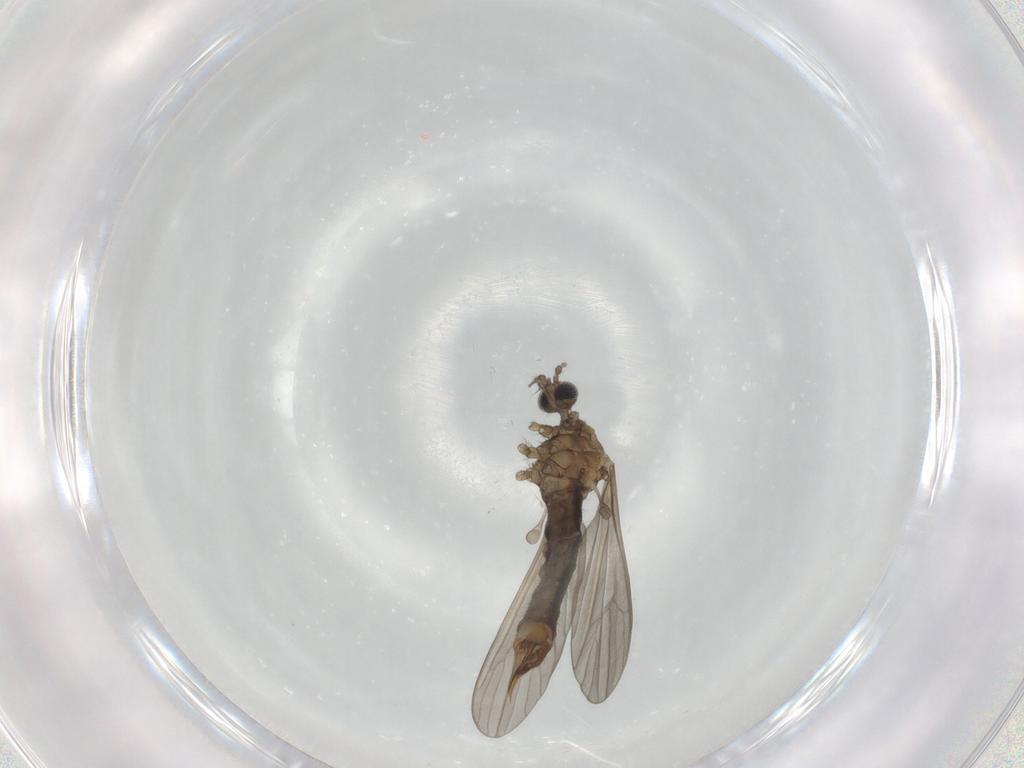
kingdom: Animalia
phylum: Arthropoda
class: Insecta
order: Diptera
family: Limoniidae
